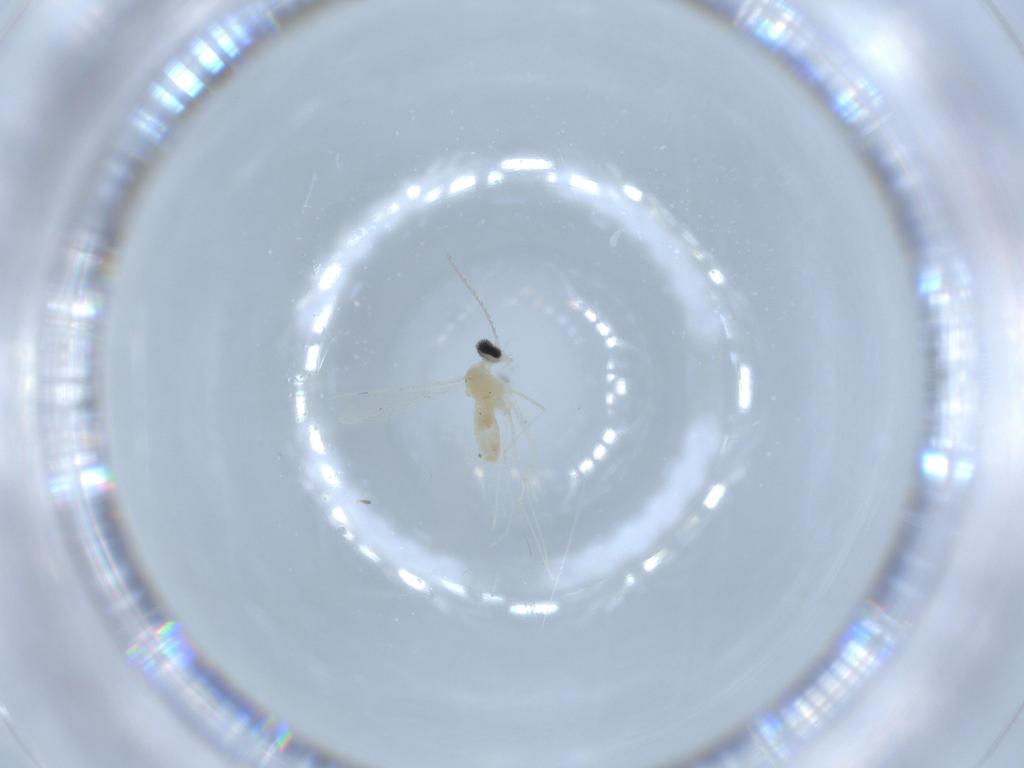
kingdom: Animalia
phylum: Arthropoda
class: Insecta
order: Diptera
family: Cecidomyiidae
